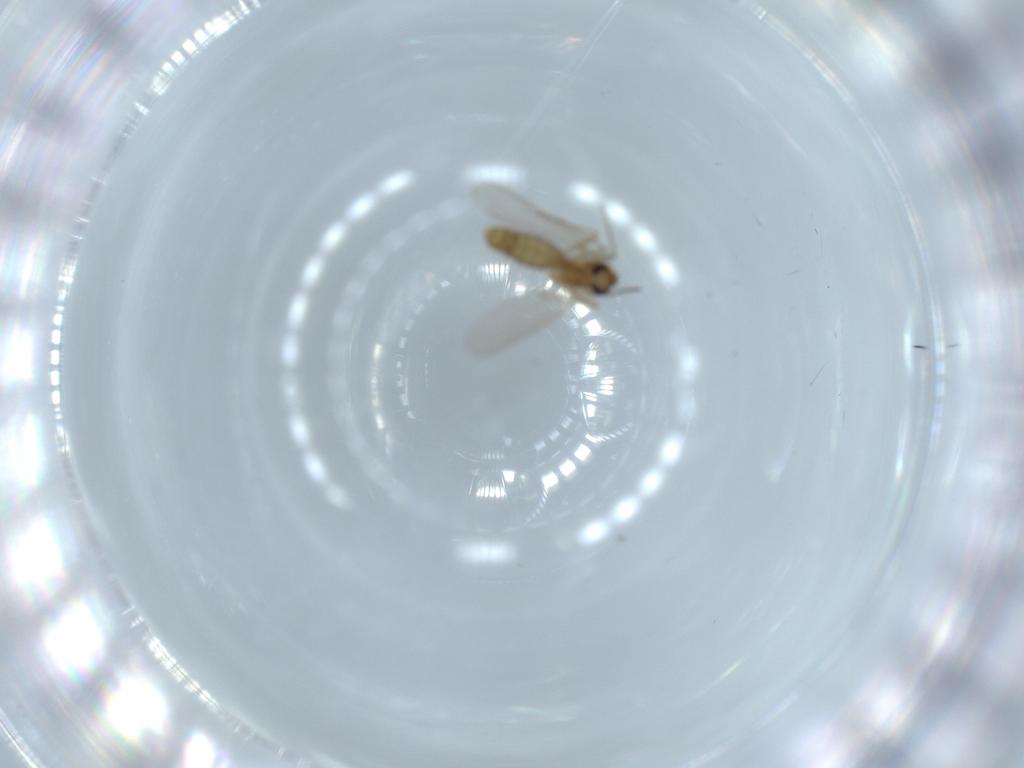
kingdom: Animalia
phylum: Arthropoda
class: Insecta
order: Diptera
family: Chironomidae
